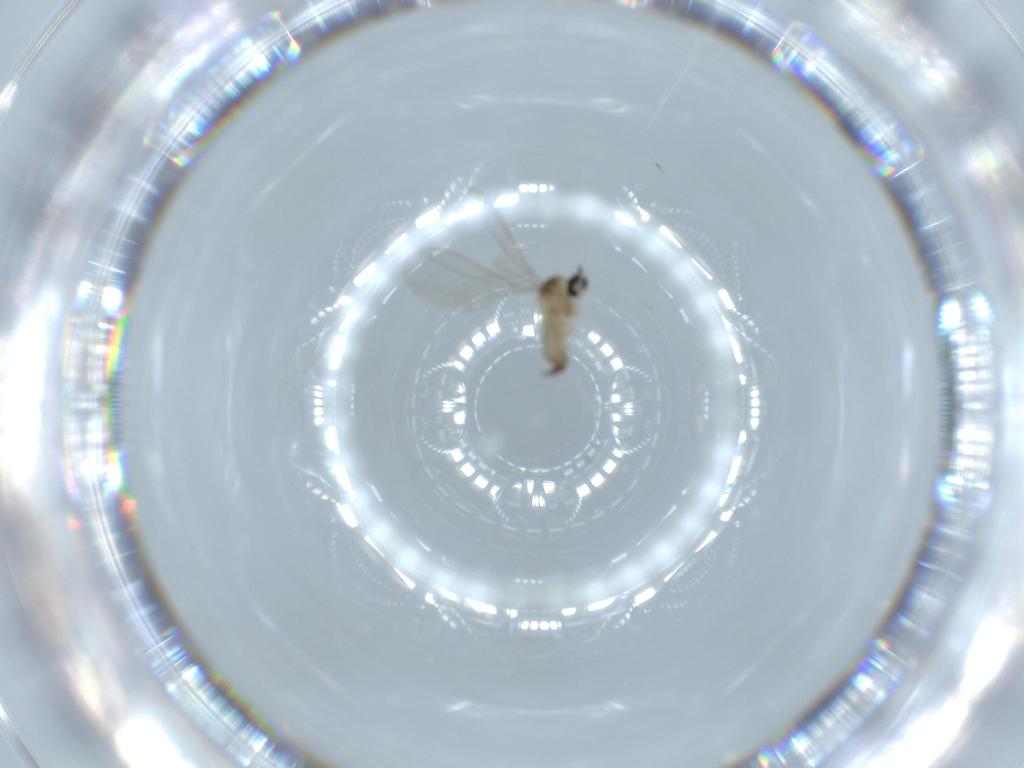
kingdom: Animalia
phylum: Arthropoda
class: Insecta
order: Diptera
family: Cecidomyiidae
